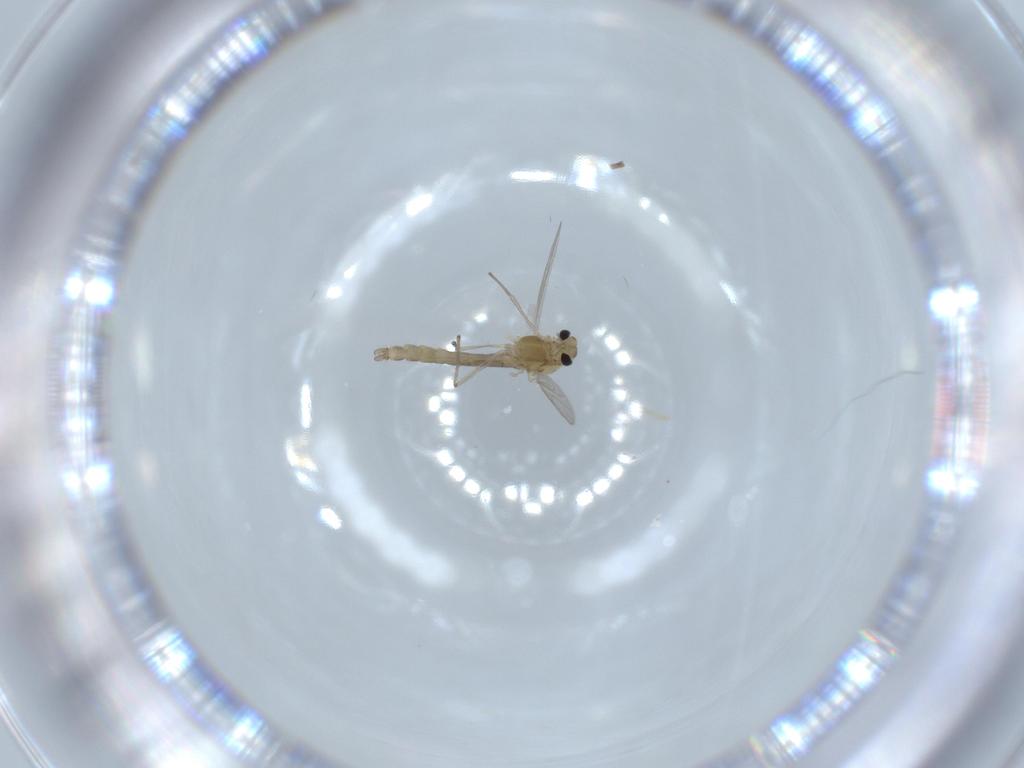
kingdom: Animalia
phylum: Arthropoda
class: Insecta
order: Diptera
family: Chironomidae
